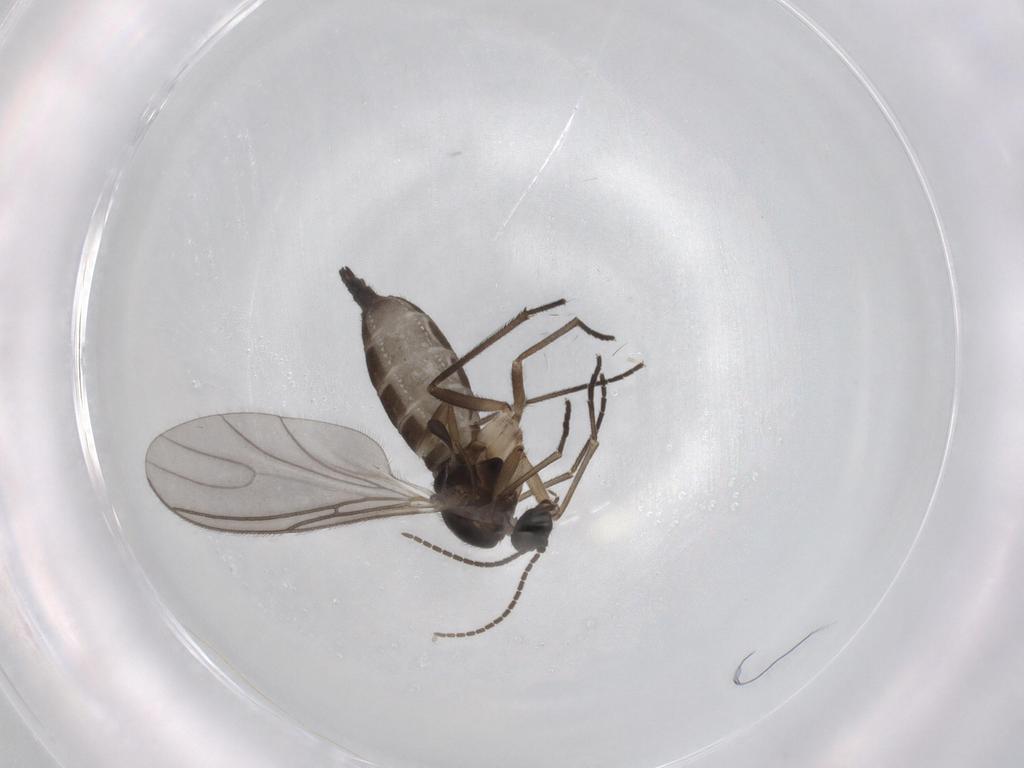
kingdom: Animalia
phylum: Arthropoda
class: Insecta
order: Diptera
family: Sciaridae
